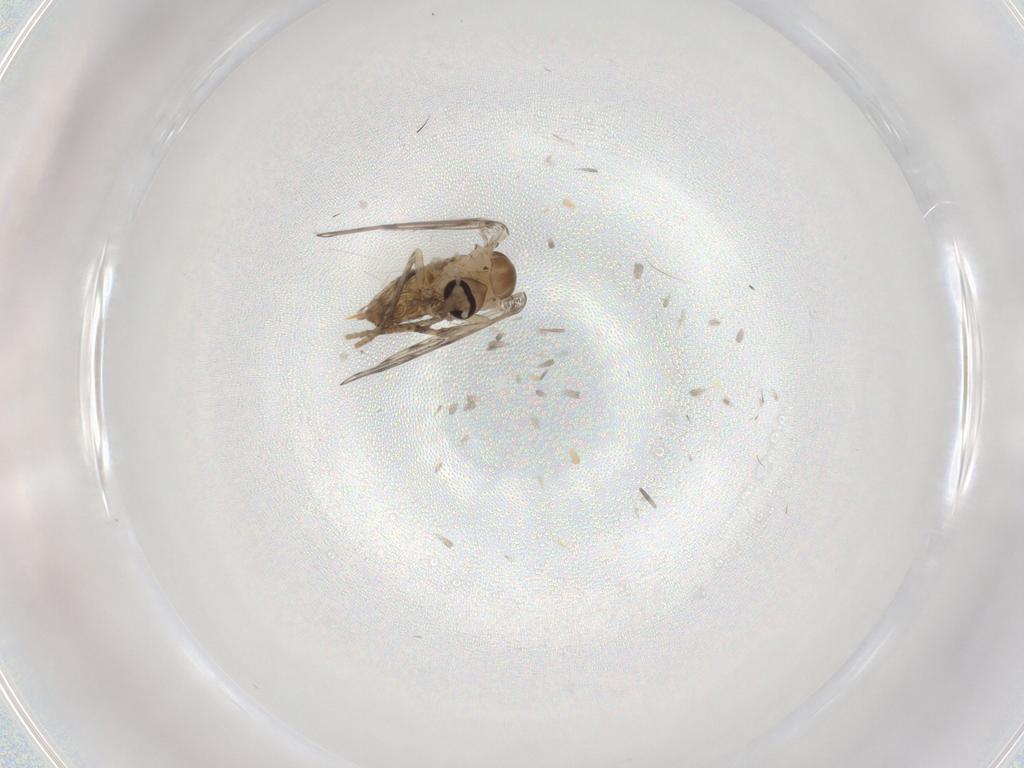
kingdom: Animalia
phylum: Arthropoda
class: Insecta
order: Diptera
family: Psychodidae
